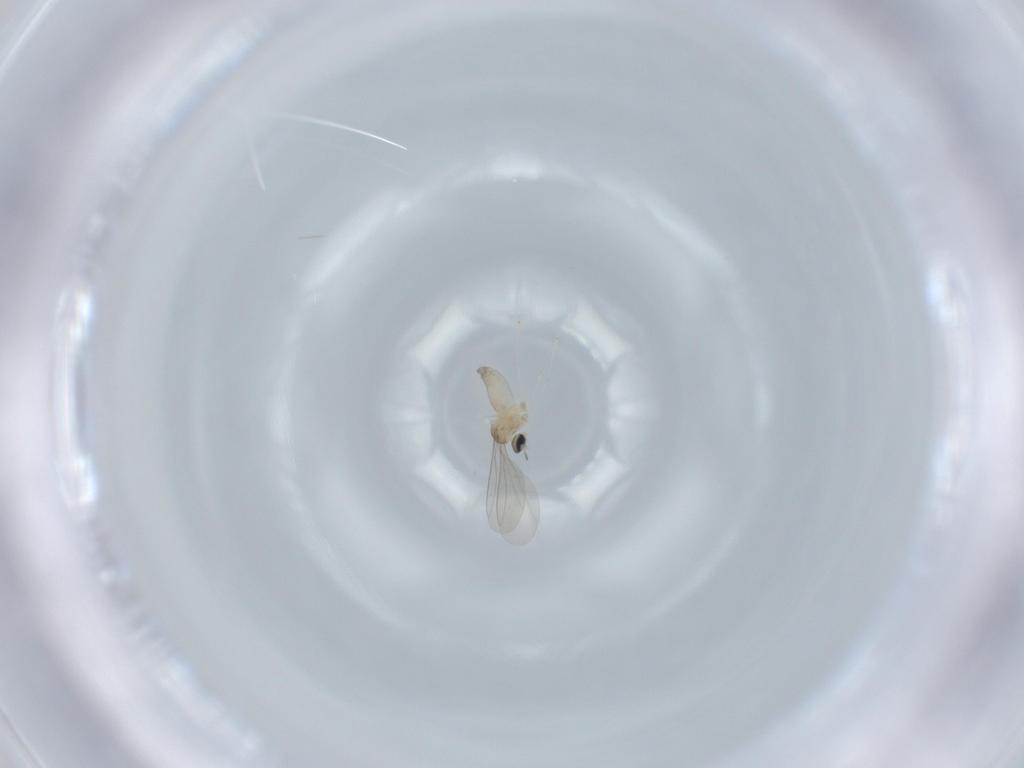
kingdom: Animalia
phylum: Arthropoda
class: Insecta
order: Diptera
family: Cecidomyiidae
